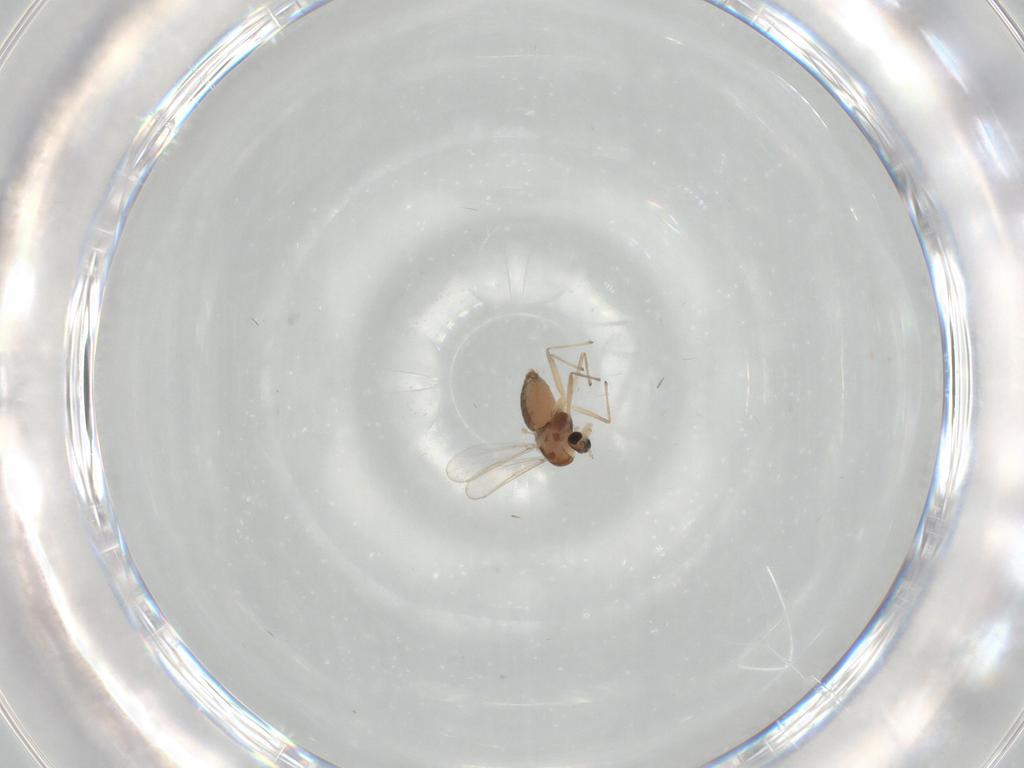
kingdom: Animalia
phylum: Arthropoda
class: Insecta
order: Diptera
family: Chironomidae
